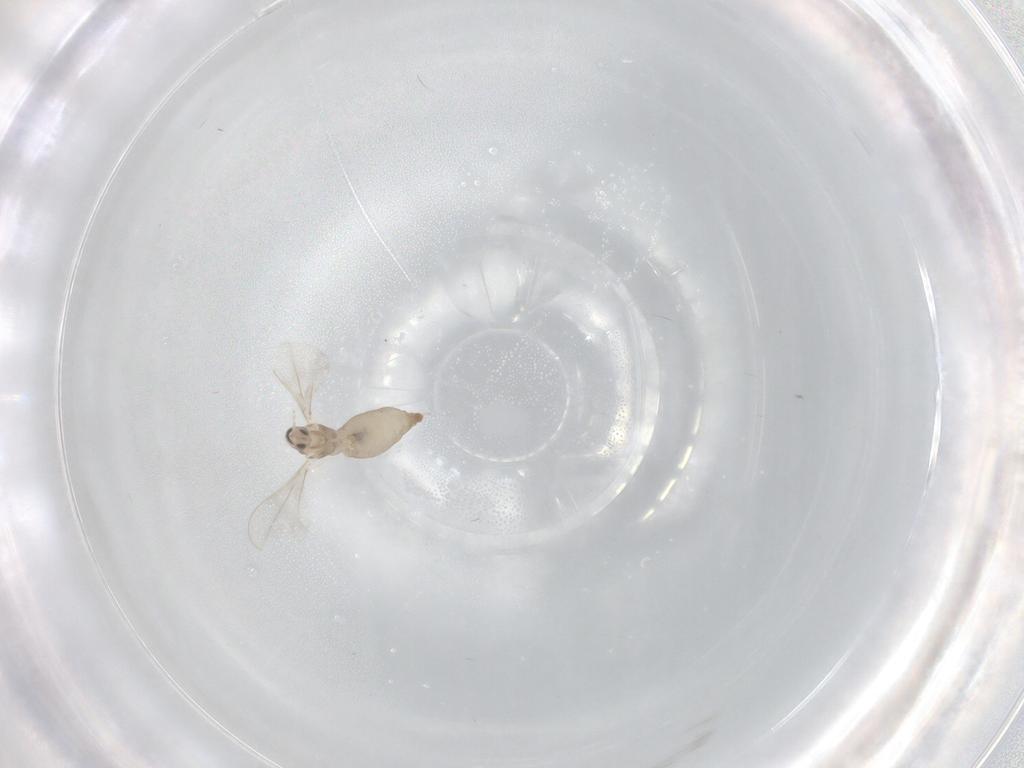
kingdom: Animalia
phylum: Arthropoda
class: Insecta
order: Diptera
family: Cecidomyiidae
